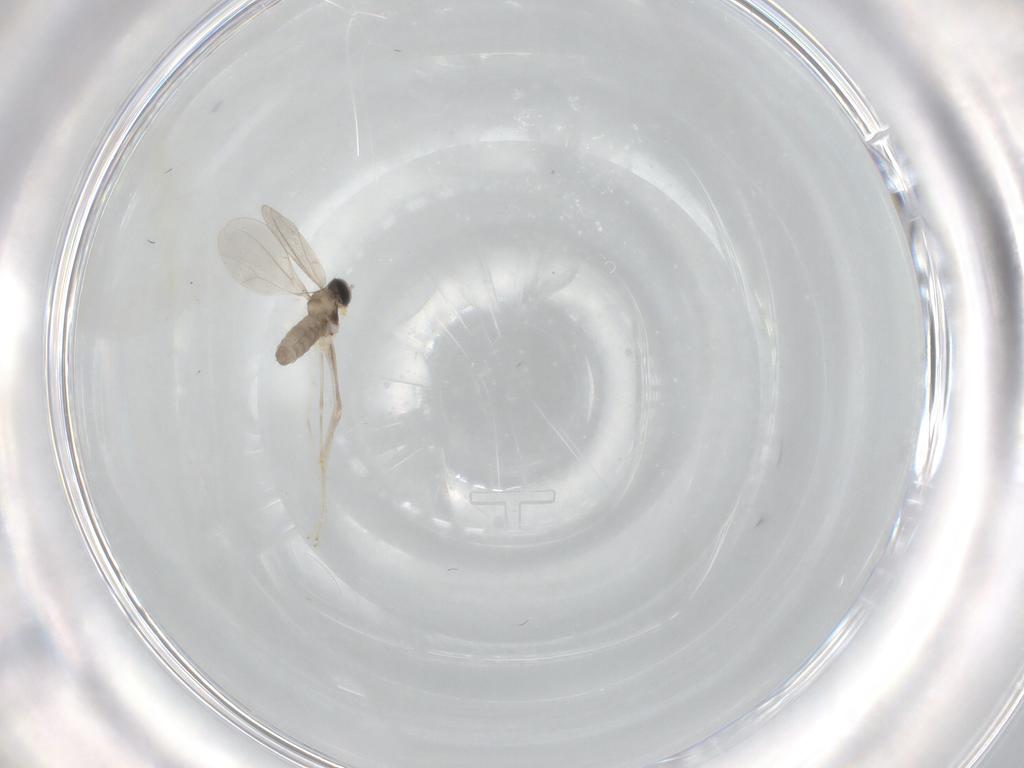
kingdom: Animalia
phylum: Arthropoda
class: Insecta
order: Diptera
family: Cecidomyiidae
